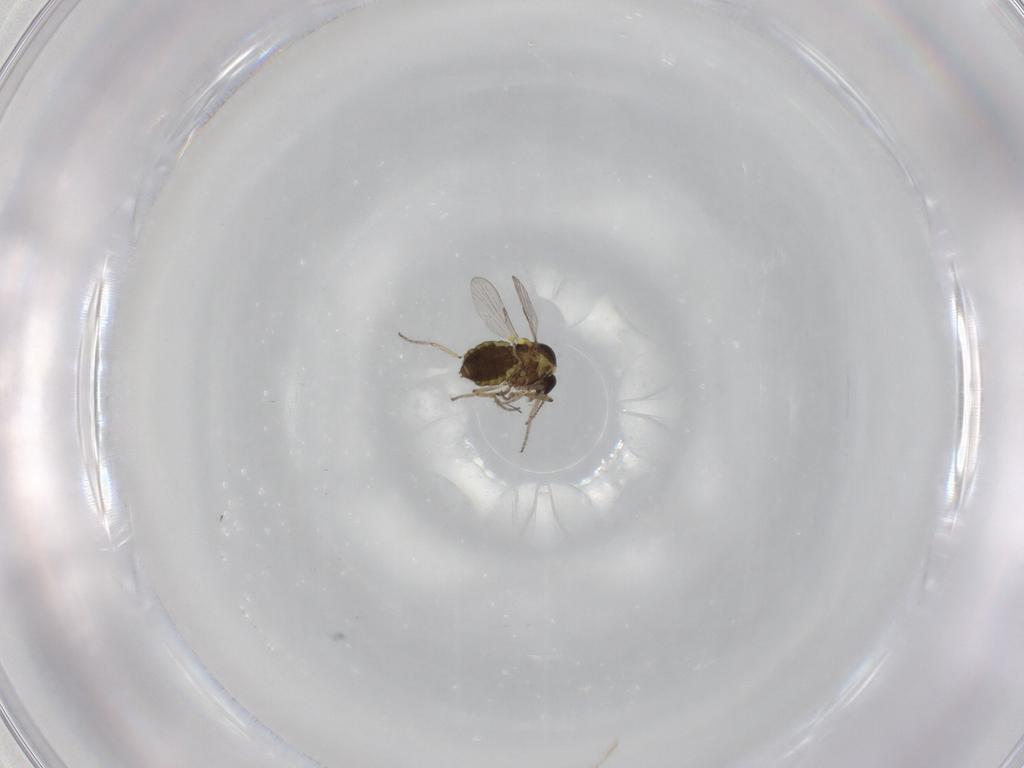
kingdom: Animalia
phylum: Arthropoda
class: Insecta
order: Diptera
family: Ceratopogonidae
